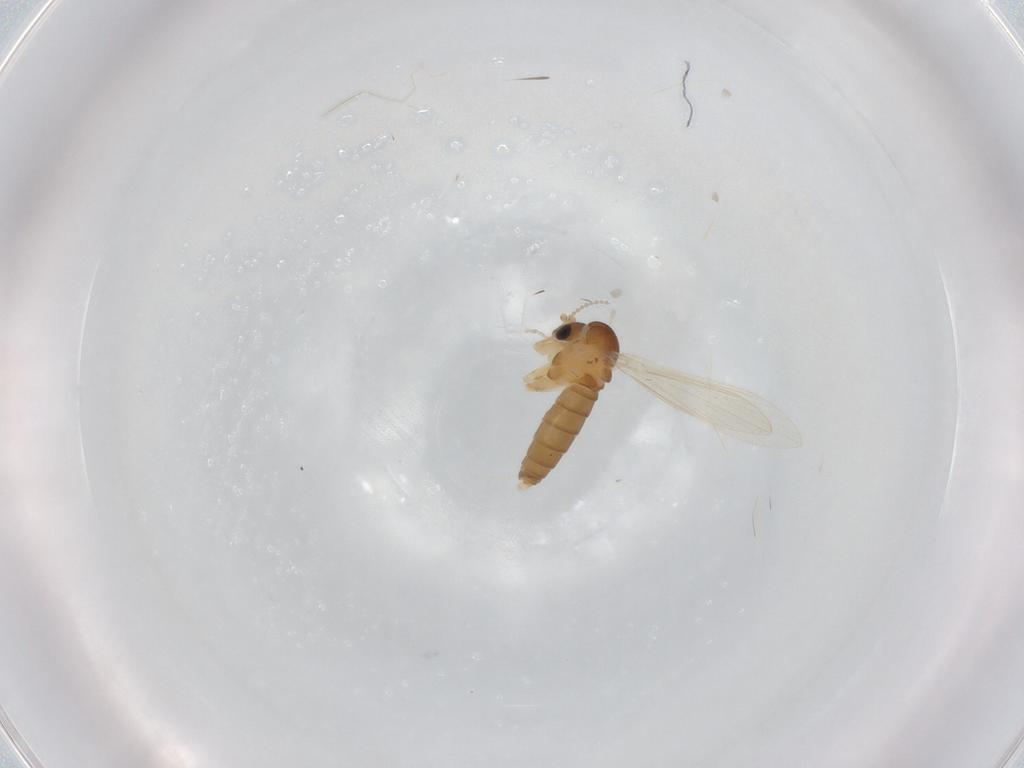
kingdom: Animalia
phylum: Arthropoda
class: Insecta
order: Diptera
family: Psychodidae
